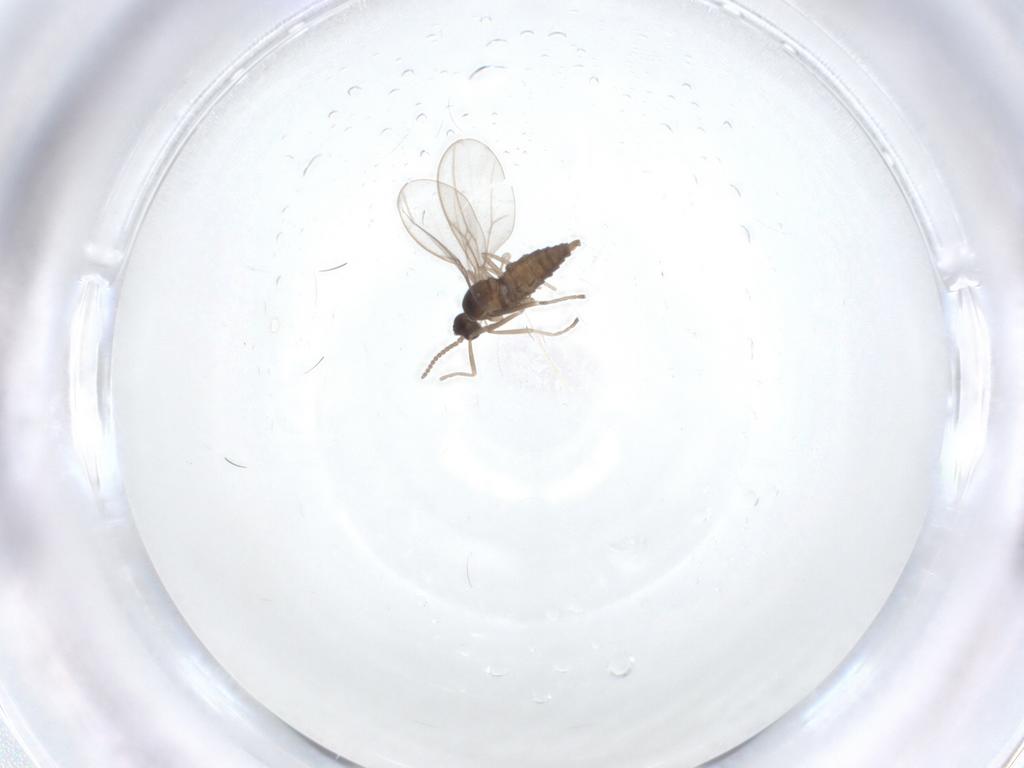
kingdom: Animalia
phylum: Arthropoda
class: Insecta
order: Diptera
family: Cecidomyiidae
